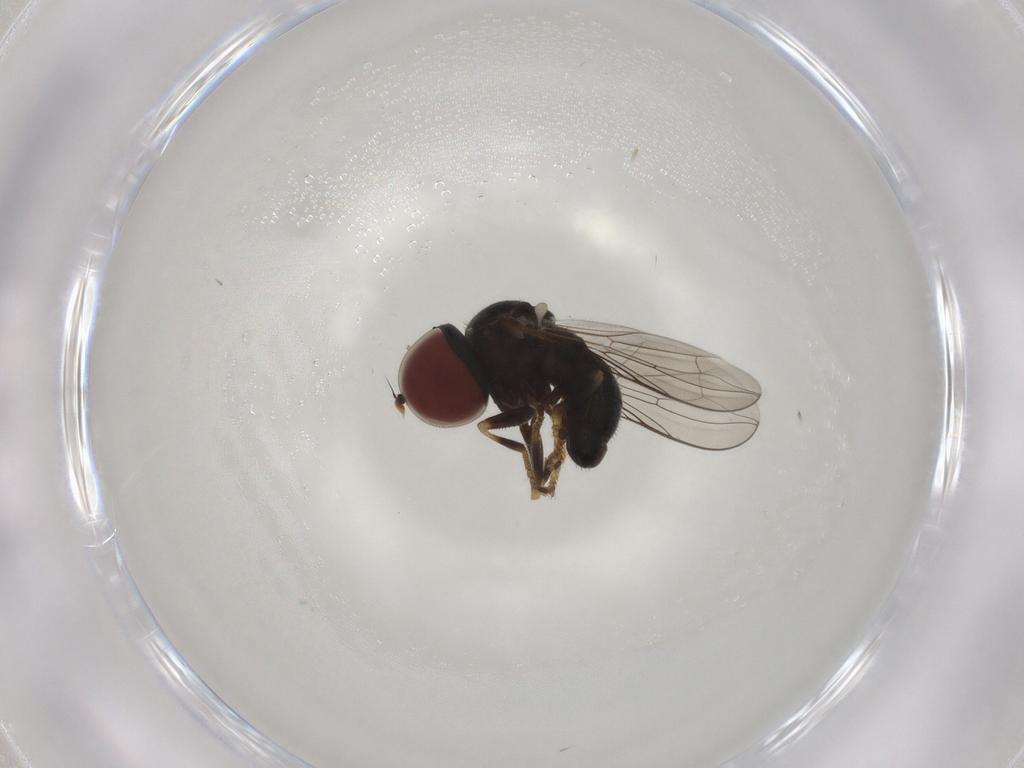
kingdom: Animalia
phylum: Arthropoda
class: Insecta
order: Diptera
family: Pipunculidae
